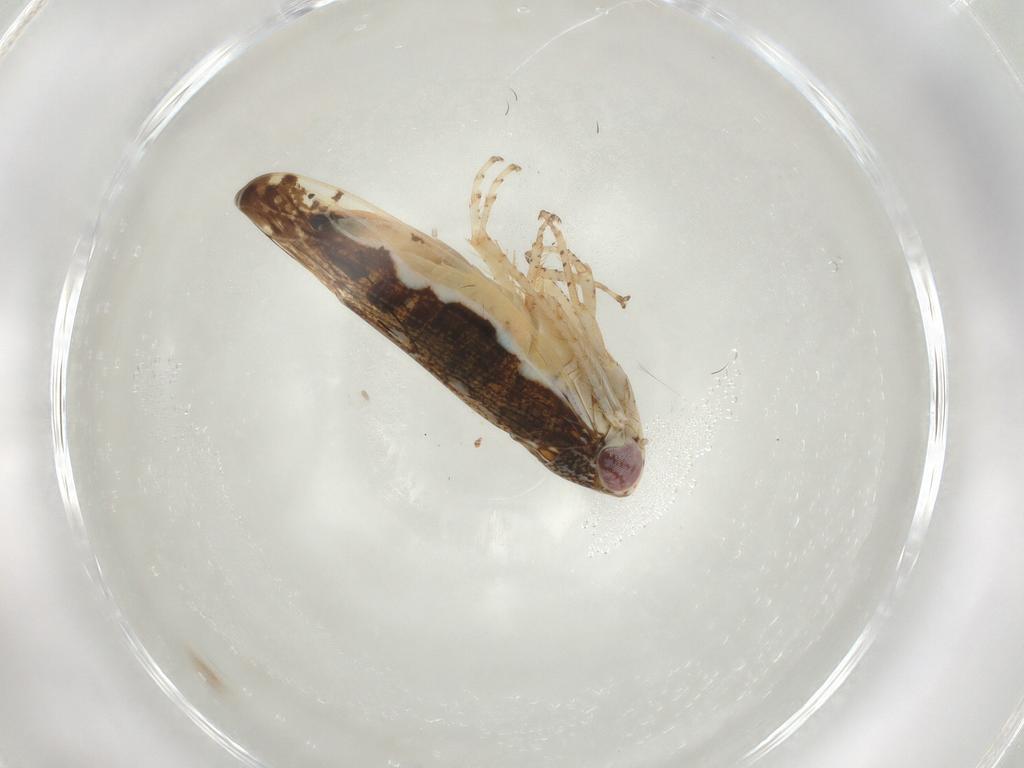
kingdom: Animalia
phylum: Arthropoda
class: Insecta
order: Hemiptera
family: Cicadellidae
